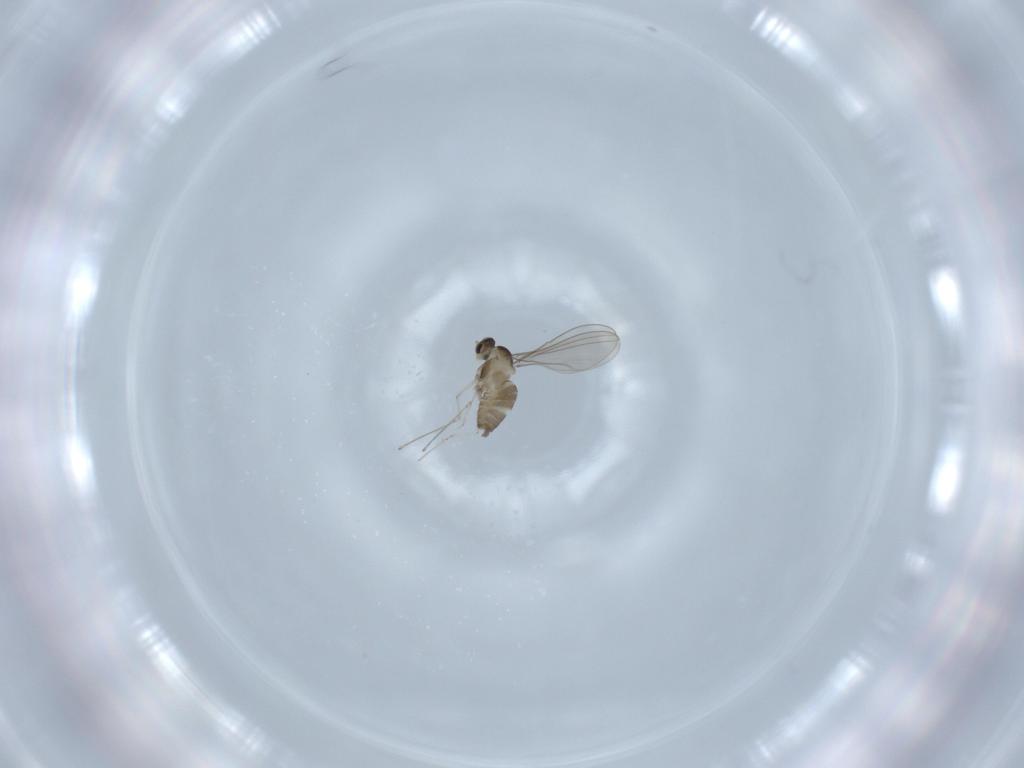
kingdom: Animalia
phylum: Arthropoda
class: Insecta
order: Diptera
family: Cecidomyiidae
